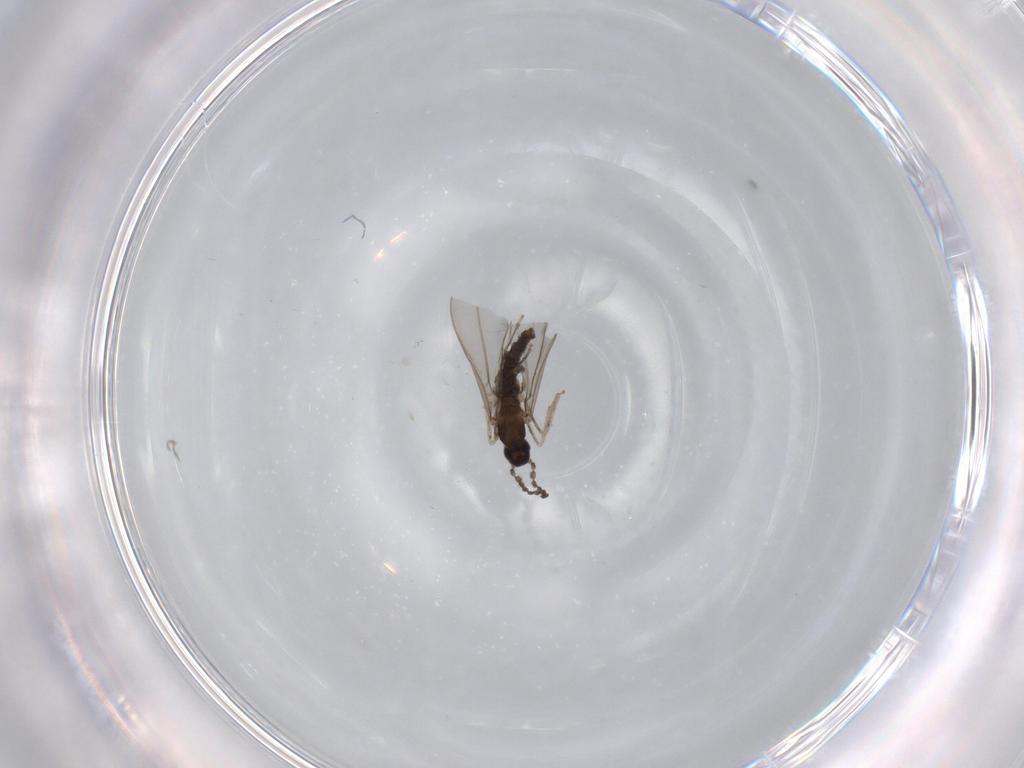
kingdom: Animalia
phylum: Arthropoda
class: Insecta
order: Diptera
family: Cecidomyiidae
